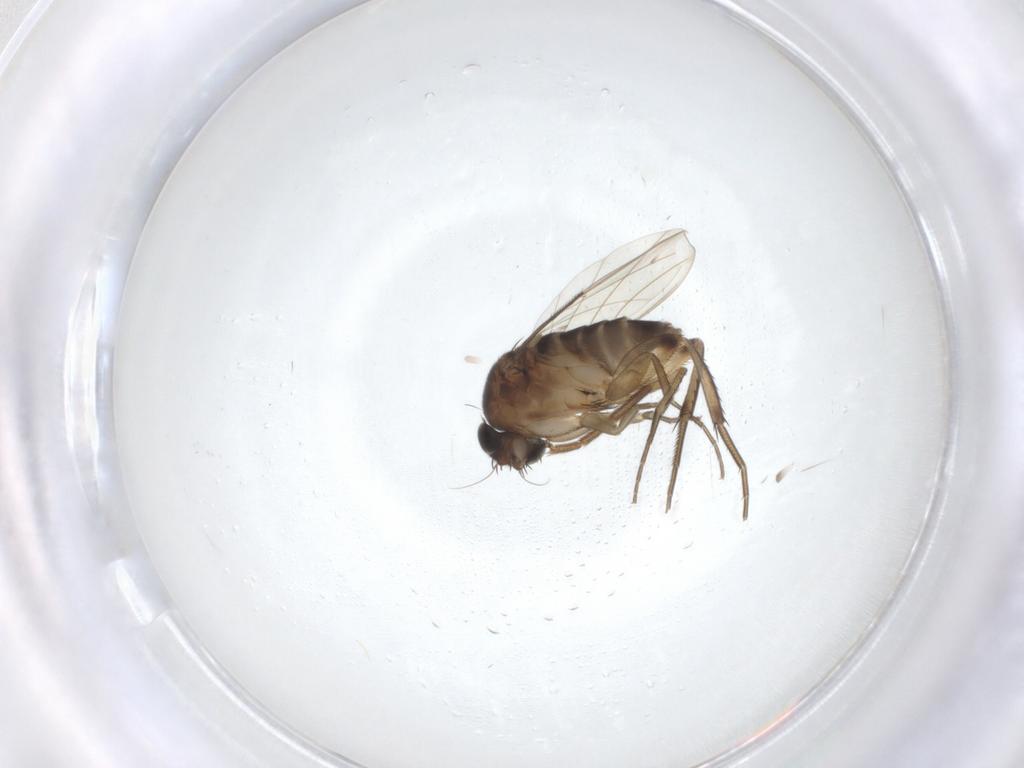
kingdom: Animalia
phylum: Arthropoda
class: Insecta
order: Diptera
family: Phoridae
